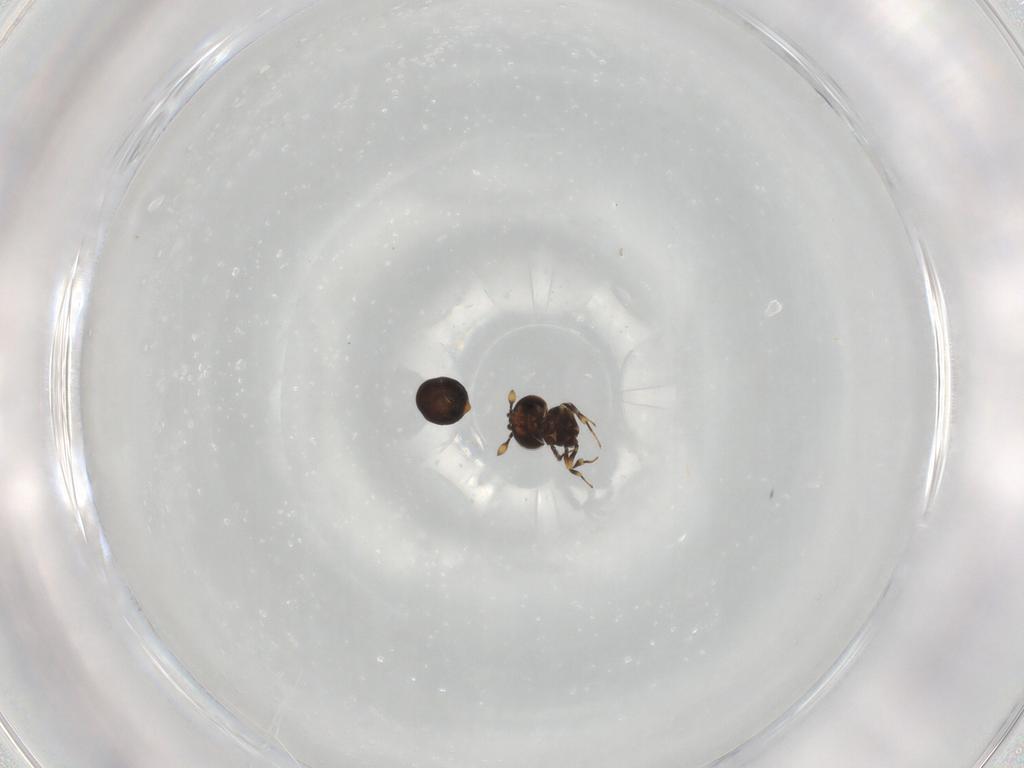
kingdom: Animalia
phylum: Arthropoda
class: Insecta
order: Hymenoptera
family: Scelionidae
